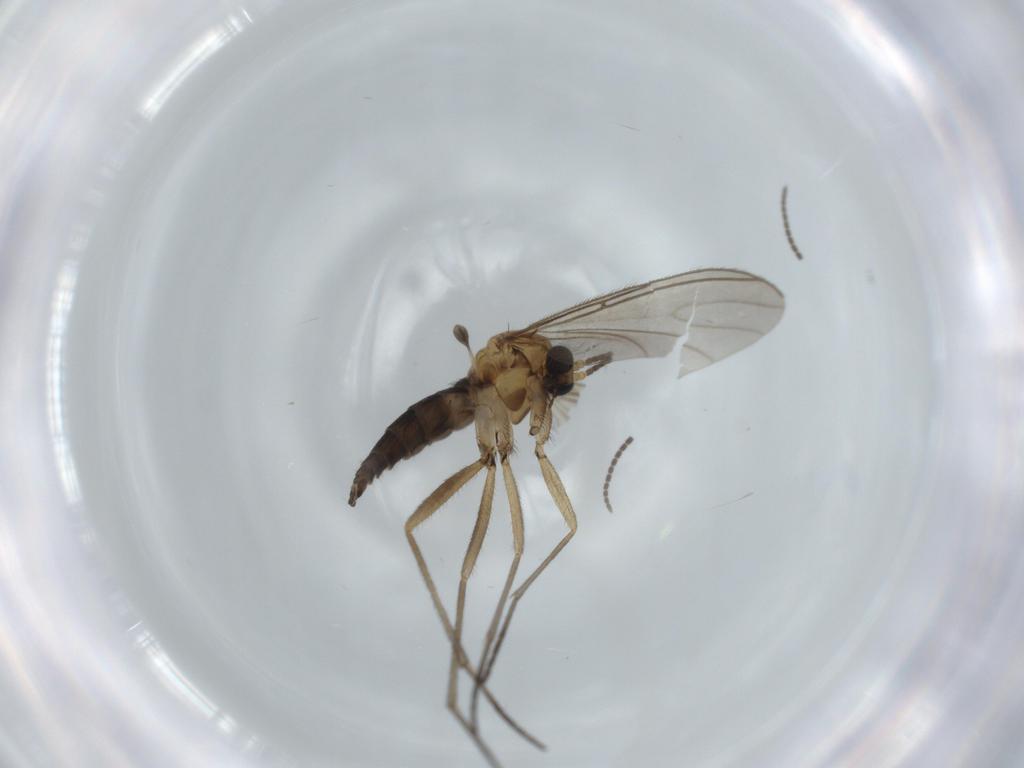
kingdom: Animalia
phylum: Arthropoda
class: Insecta
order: Diptera
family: Sciaridae
